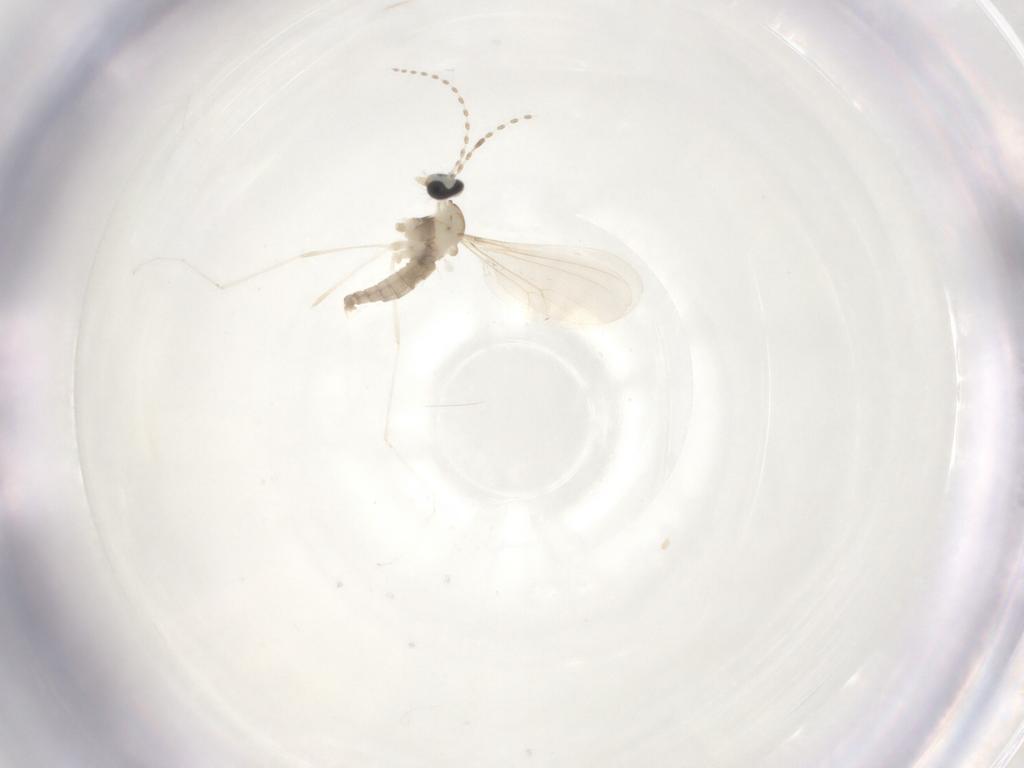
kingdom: Animalia
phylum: Arthropoda
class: Insecta
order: Diptera
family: Cecidomyiidae
